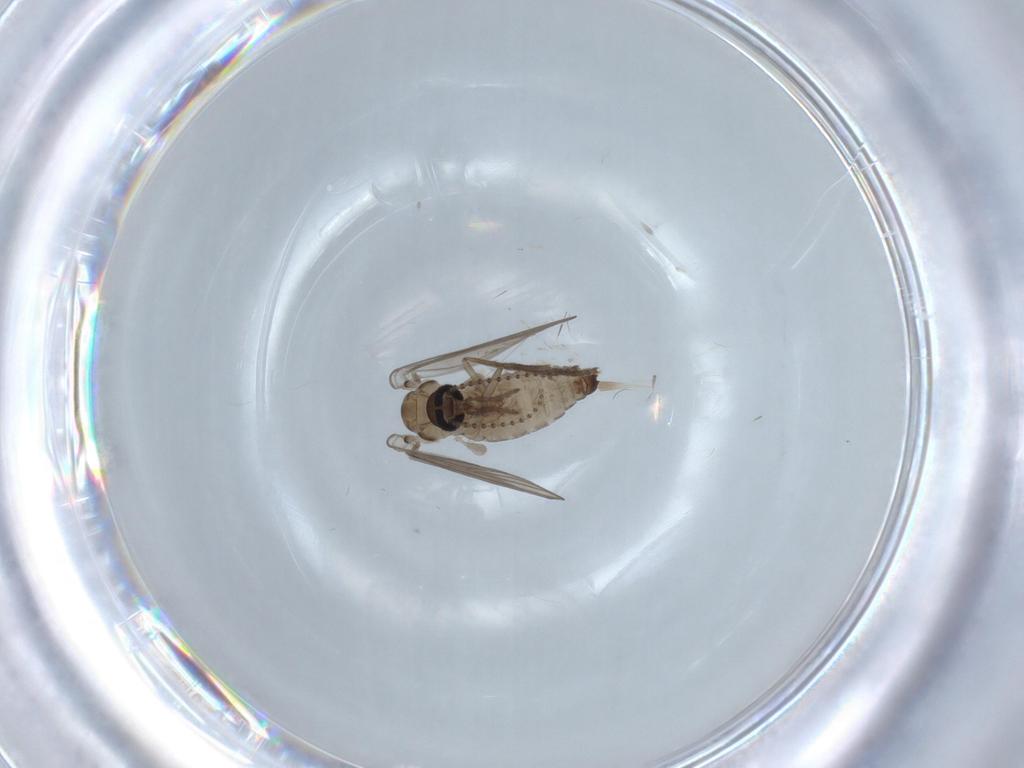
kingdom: Animalia
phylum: Arthropoda
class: Insecta
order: Diptera
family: Psychodidae
